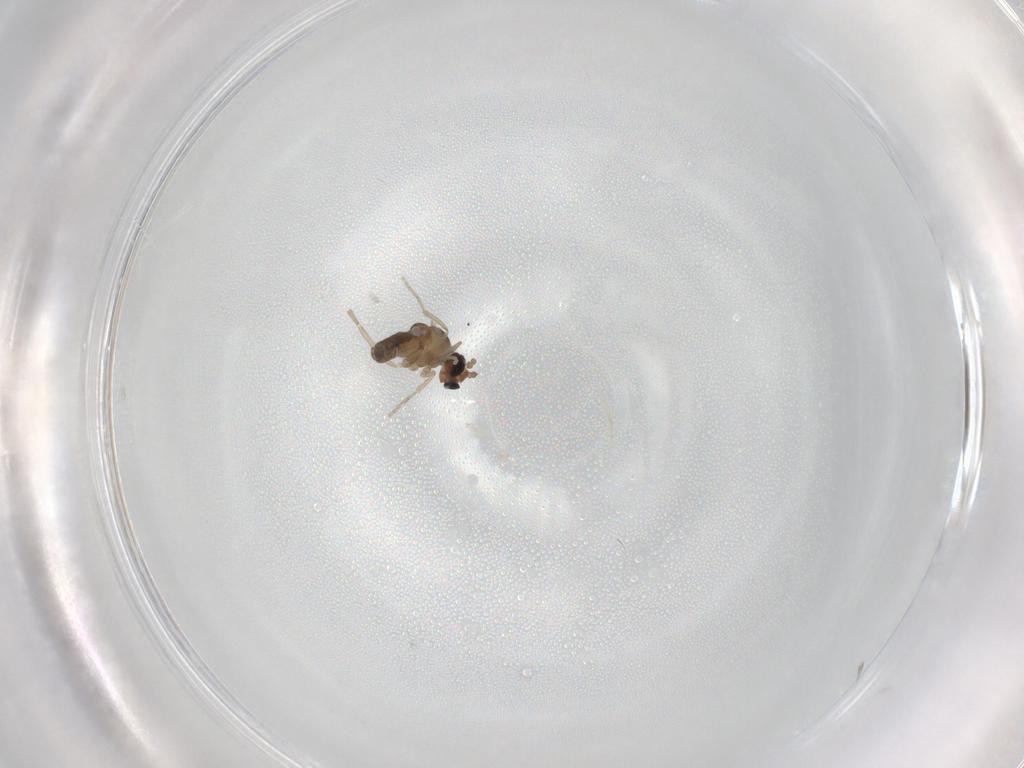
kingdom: Animalia
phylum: Arthropoda
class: Insecta
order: Diptera
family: Cecidomyiidae
